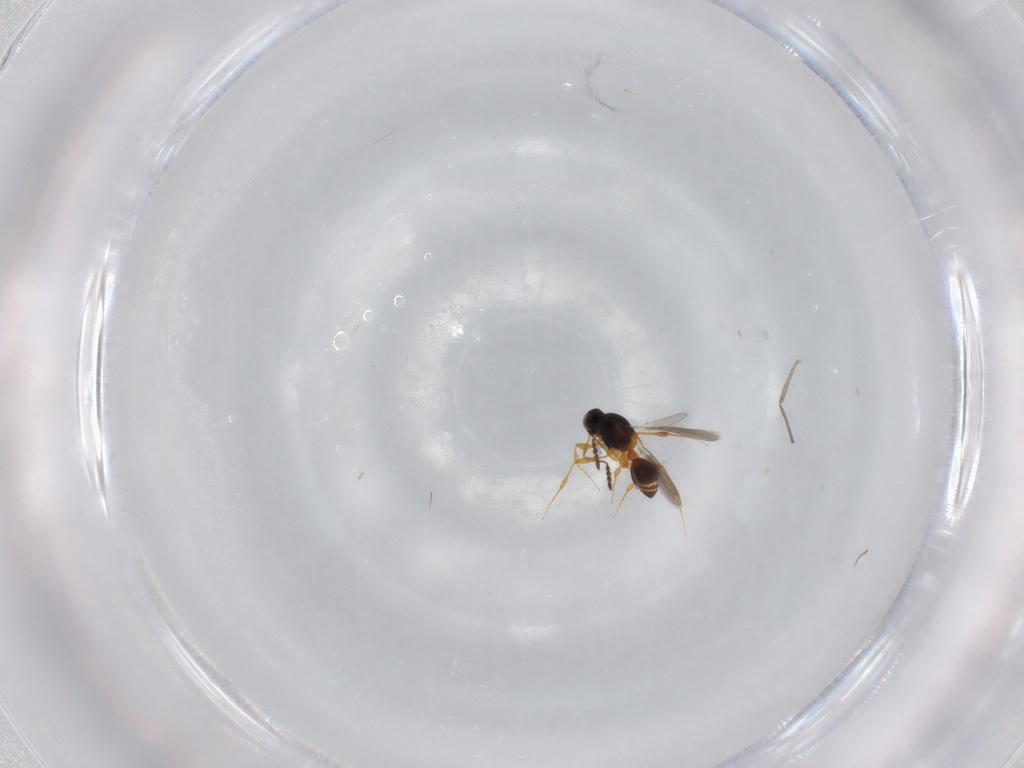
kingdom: Animalia
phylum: Arthropoda
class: Insecta
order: Hymenoptera
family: Platygastridae
